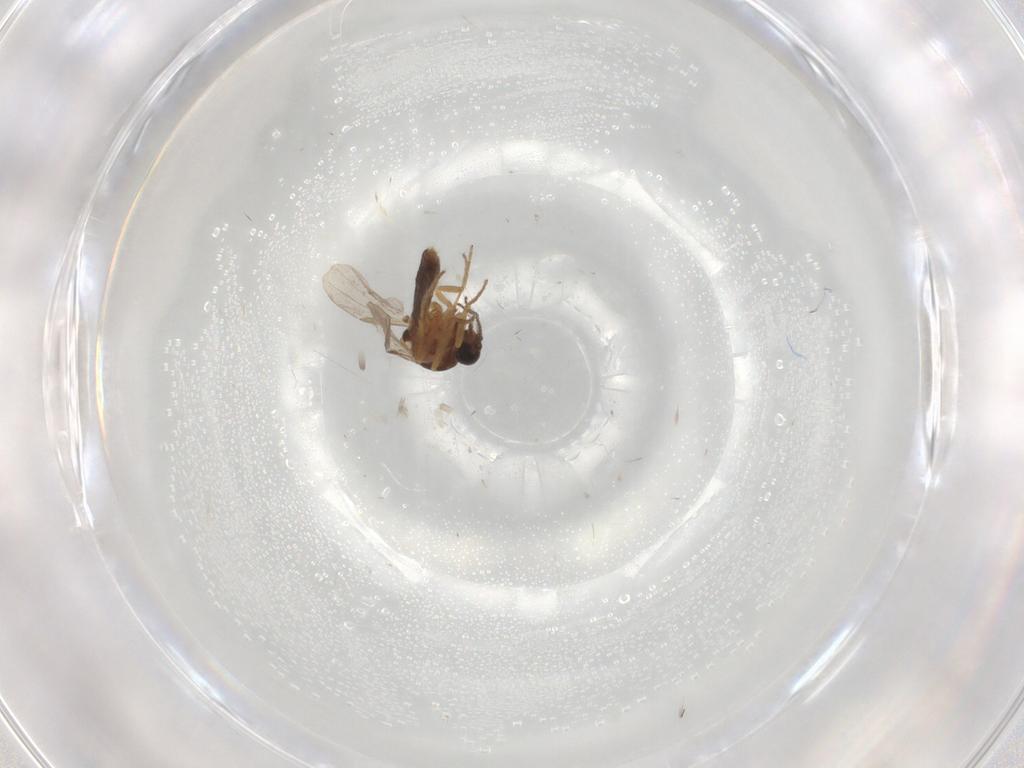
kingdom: Animalia
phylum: Arthropoda
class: Insecta
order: Diptera
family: Ceratopogonidae
